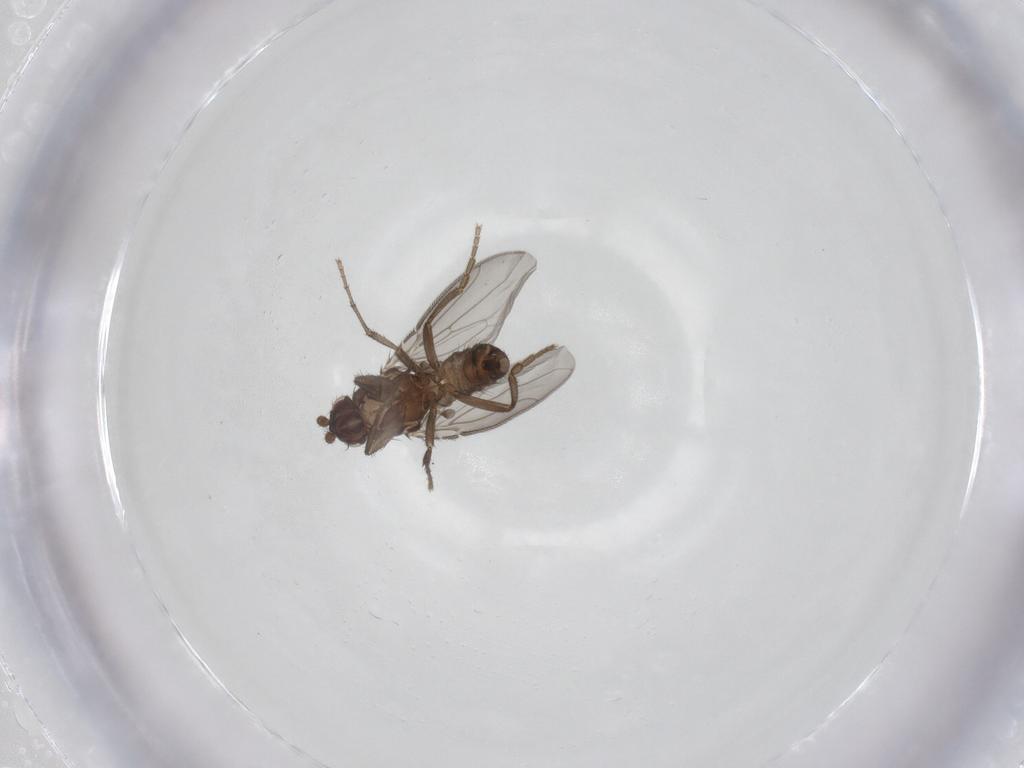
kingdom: Animalia
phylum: Arthropoda
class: Insecta
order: Diptera
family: Sphaeroceridae
